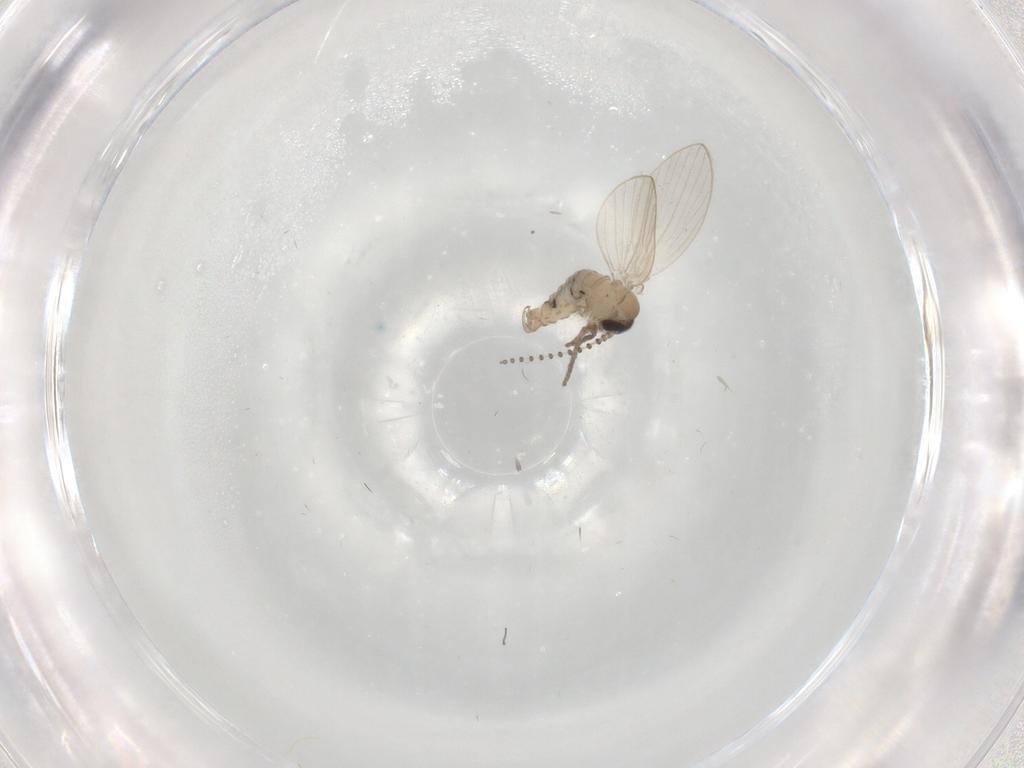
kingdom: Animalia
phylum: Arthropoda
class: Insecta
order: Diptera
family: Psychodidae
